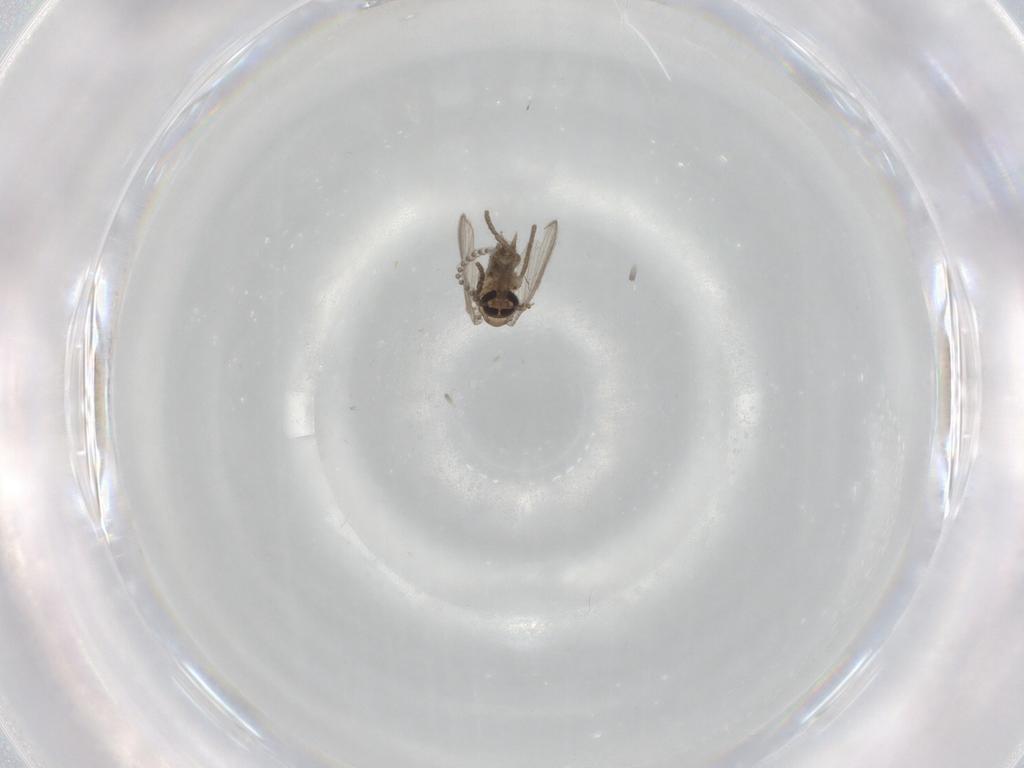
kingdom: Animalia
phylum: Arthropoda
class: Insecta
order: Diptera
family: Psychodidae
